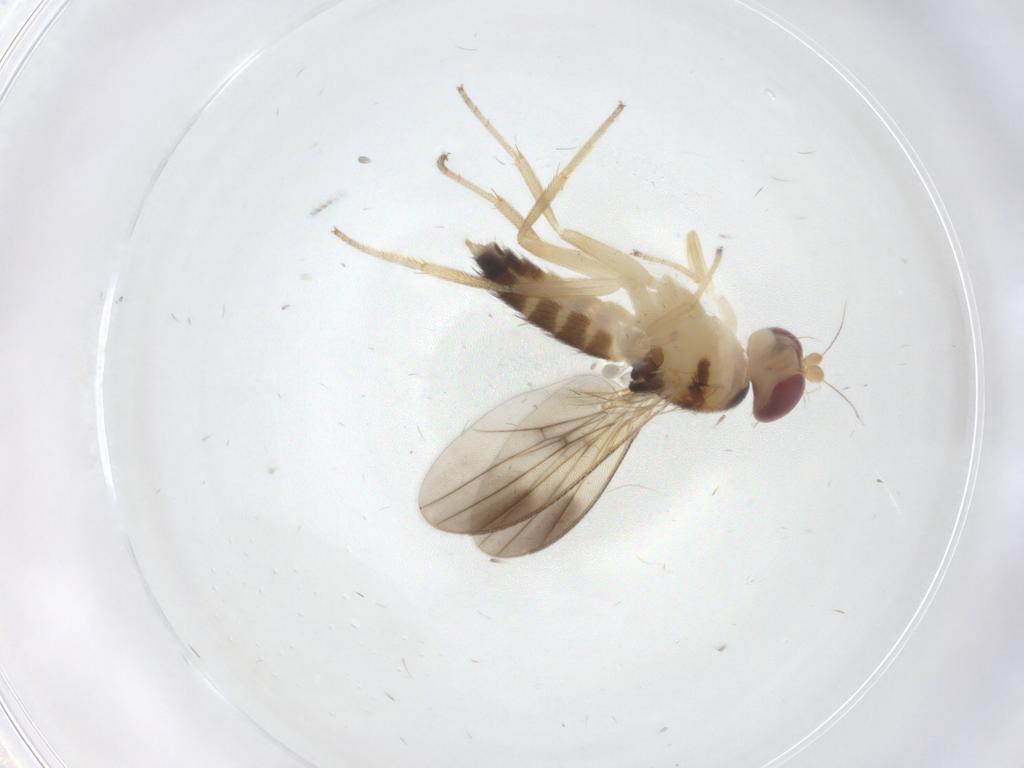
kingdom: Animalia
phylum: Arthropoda
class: Insecta
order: Diptera
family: Clusiidae
